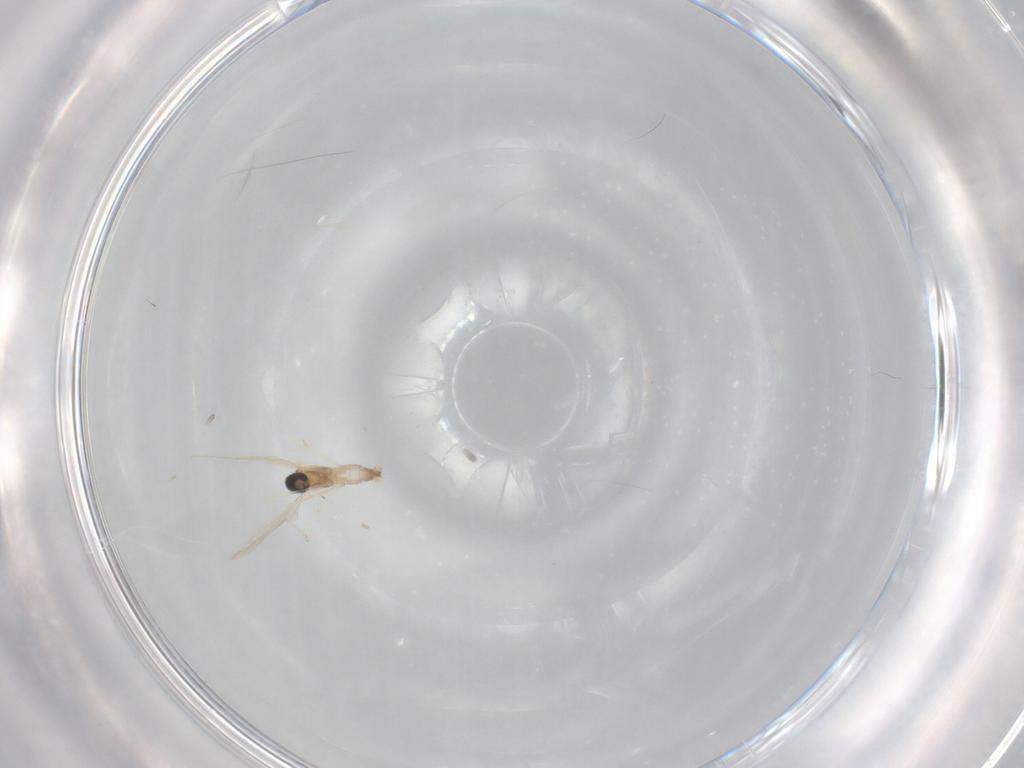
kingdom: Animalia
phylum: Arthropoda
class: Insecta
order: Diptera
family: Cecidomyiidae
